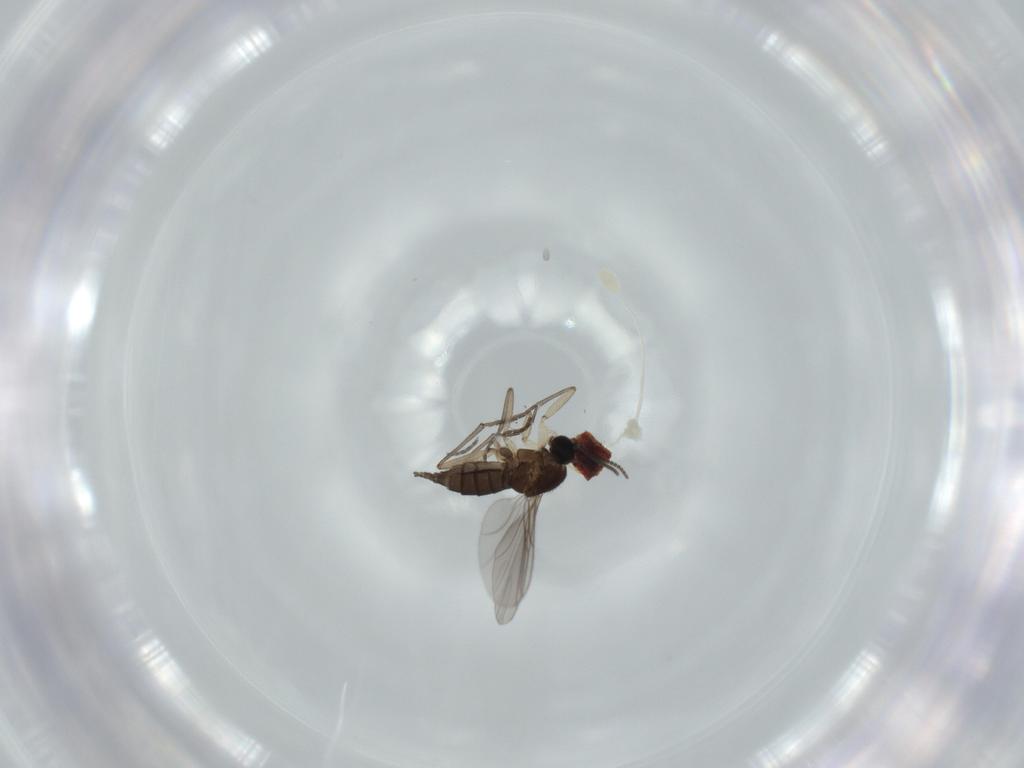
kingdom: Animalia
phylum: Arthropoda
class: Insecta
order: Diptera
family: Sciaridae
